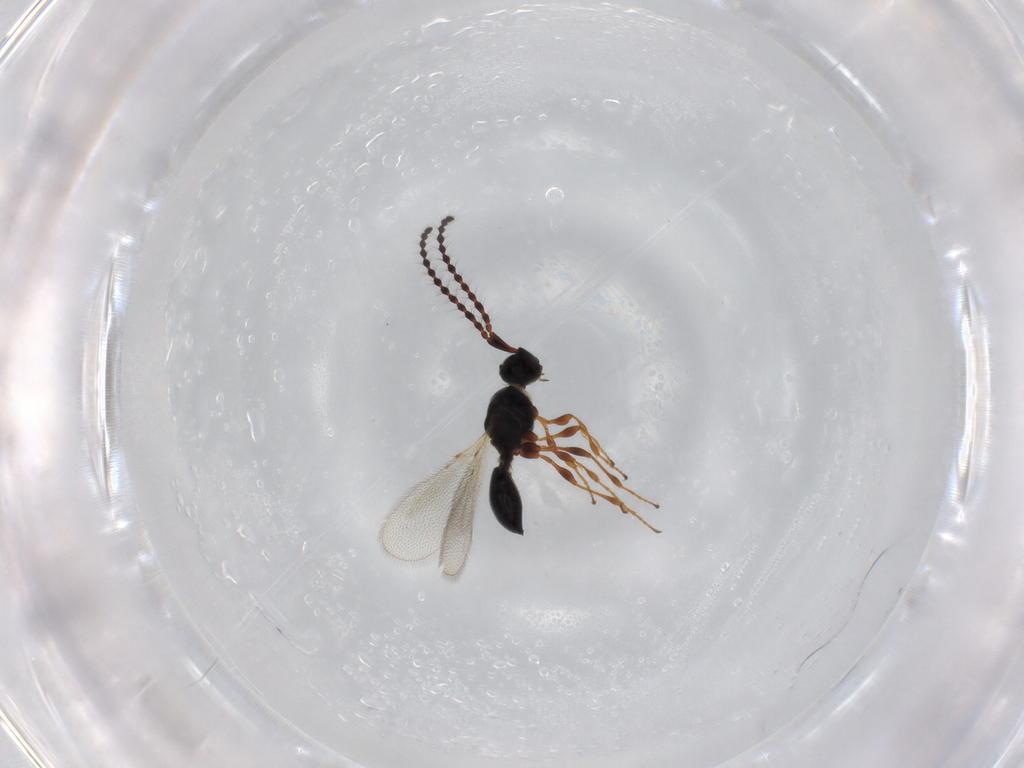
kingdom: Animalia
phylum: Arthropoda
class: Insecta
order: Hymenoptera
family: Diapriidae
